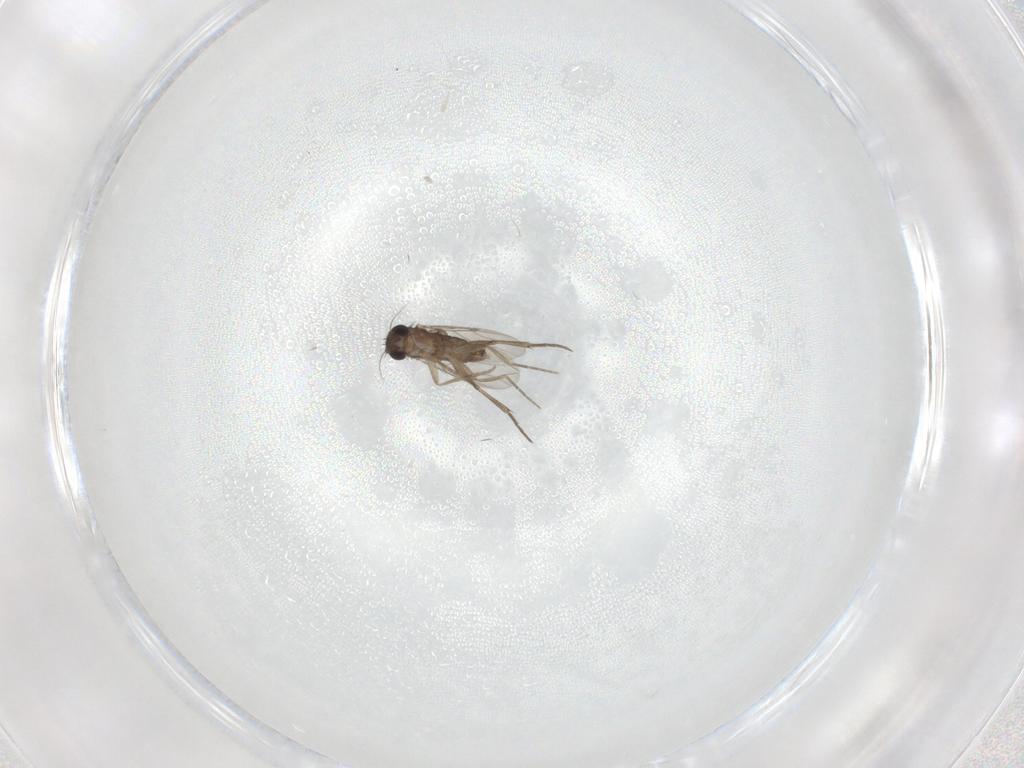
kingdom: Animalia
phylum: Arthropoda
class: Insecta
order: Diptera
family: Phoridae
